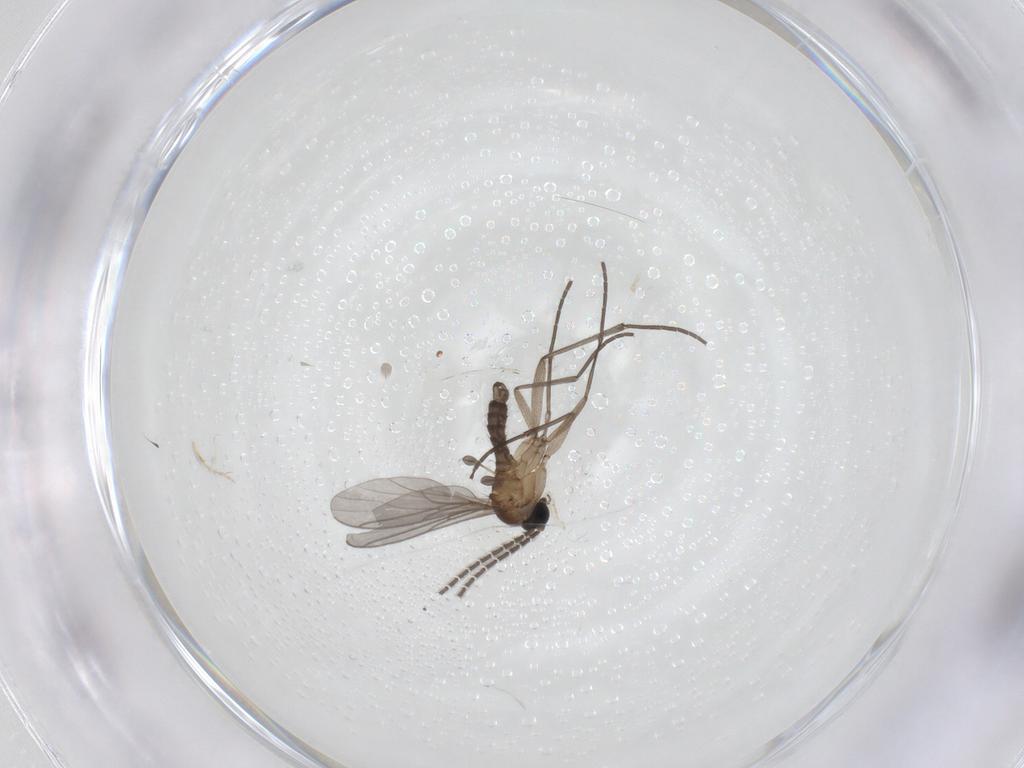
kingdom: Animalia
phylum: Arthropoda
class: Insecta
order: Diptera
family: Sciaridae
